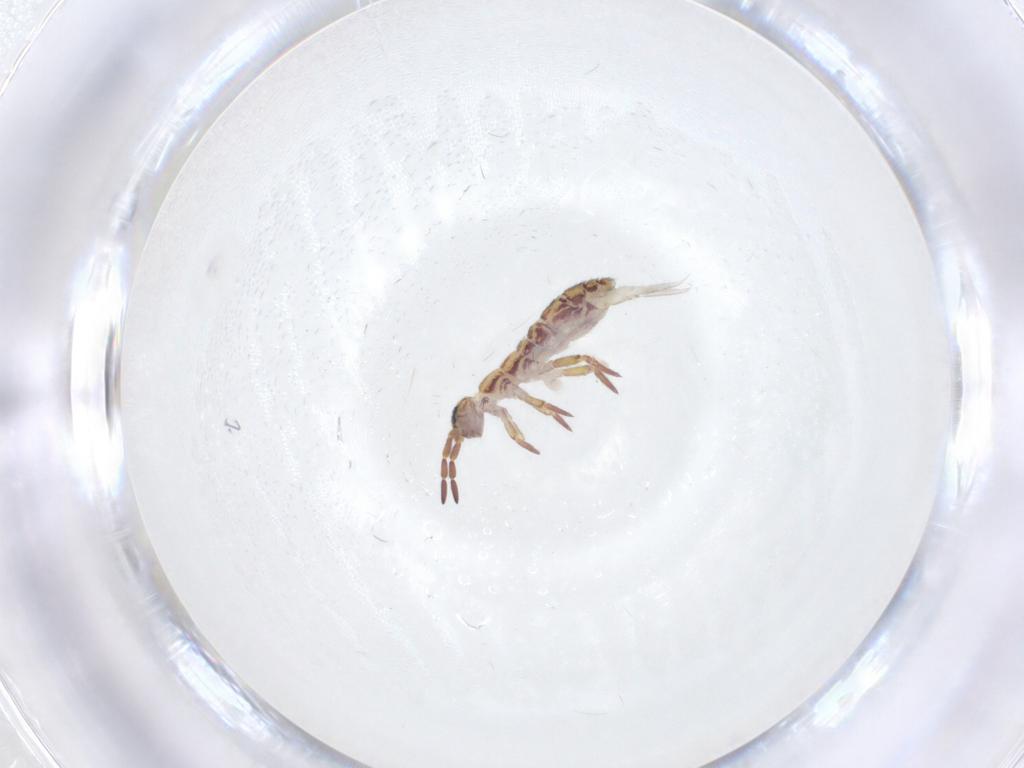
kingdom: Animalia
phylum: Arthropoda
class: Collembola
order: Entomobryomorpha
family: Isotomidae
